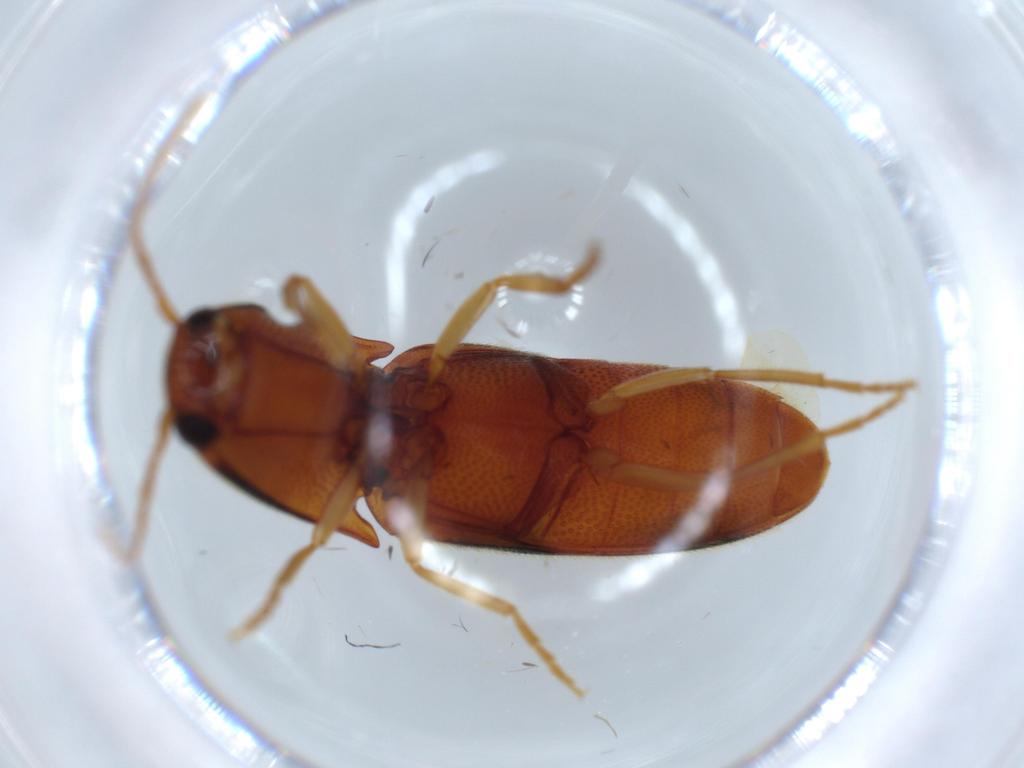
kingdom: Animalia
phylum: Arthropoda
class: Insecta
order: Coleoptera
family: Elateridae
